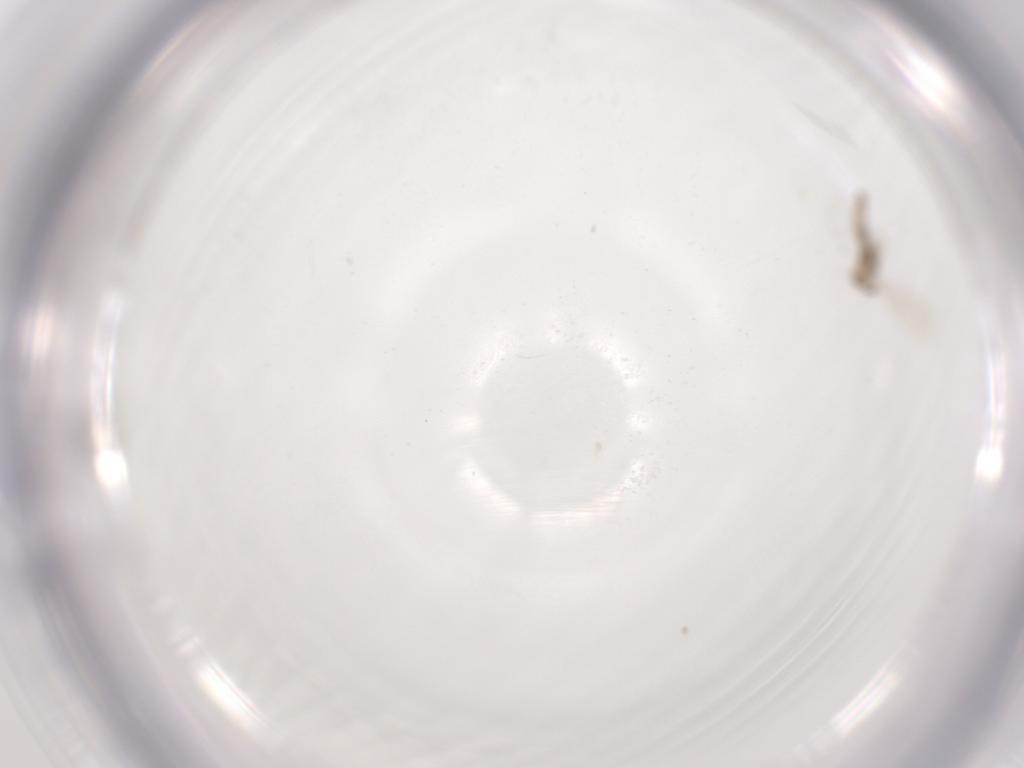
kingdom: Animalia
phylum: Arthropoda
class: Insecta
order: Diptera
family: Cecidomyiidae
